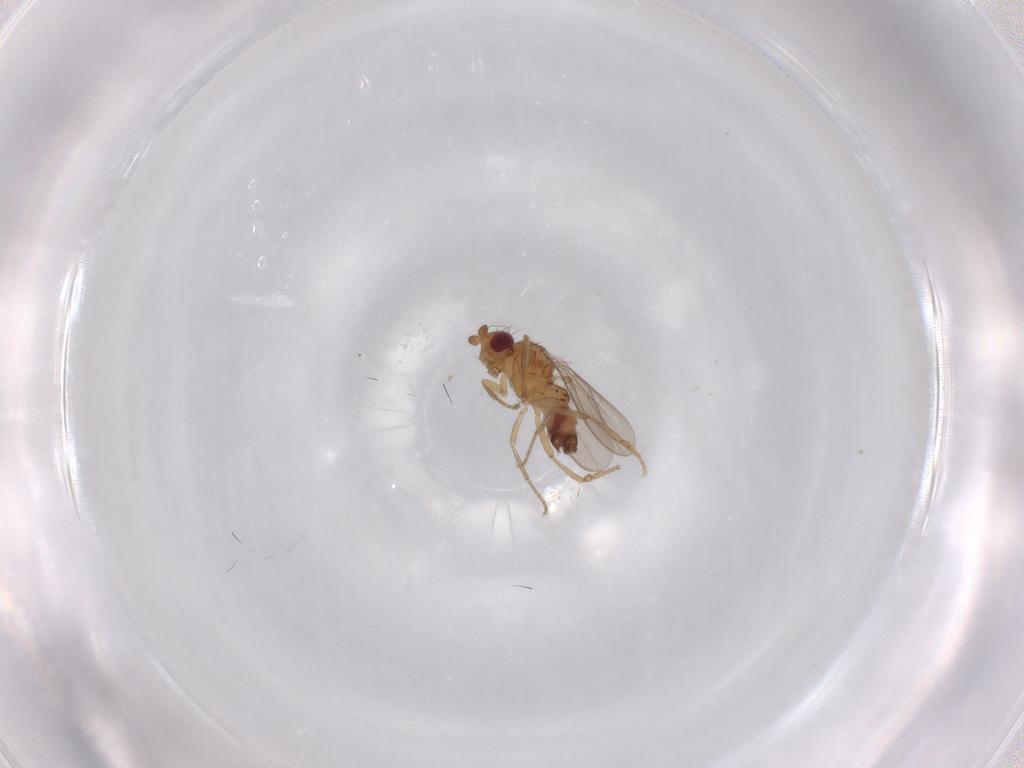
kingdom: Animalia
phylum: Arthropoda
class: Insecta
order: Diptera
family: Sphaeroceridae
